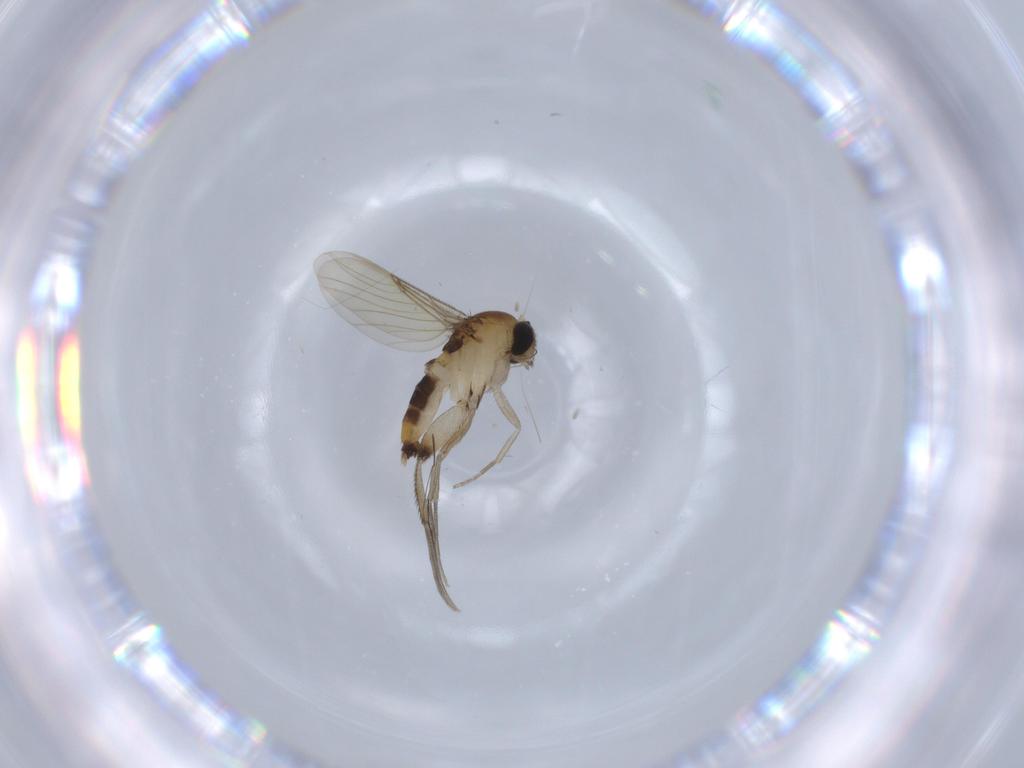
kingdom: Animalia
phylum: Arthropoda
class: Insecta
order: Diptera
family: Phoridae
